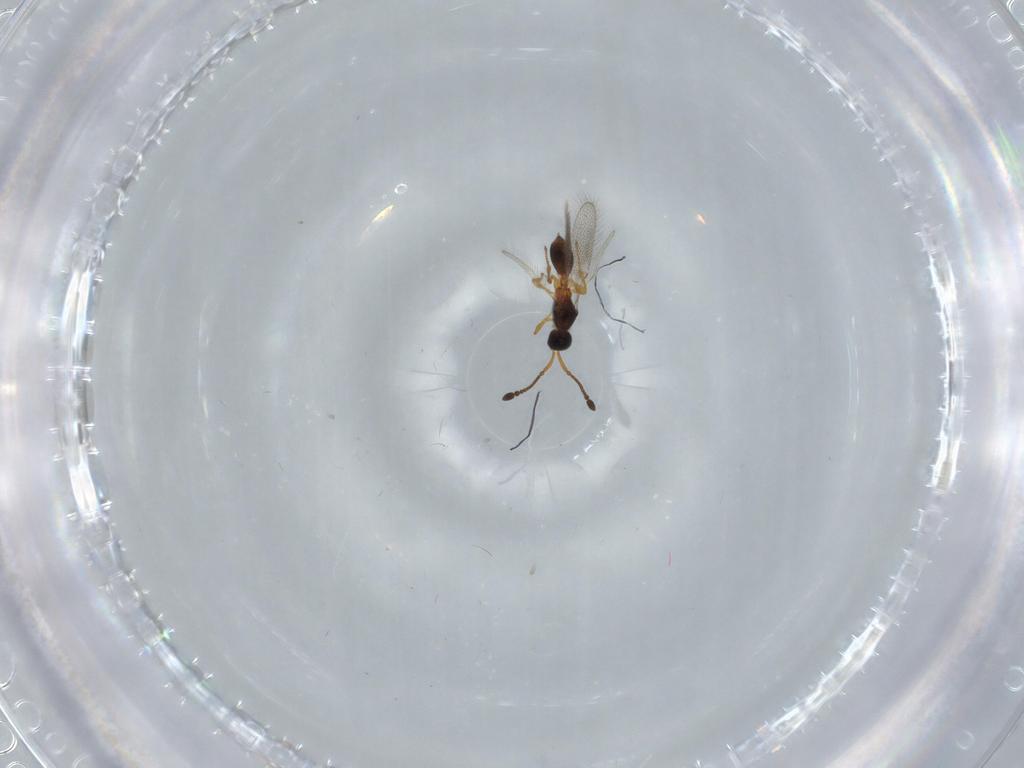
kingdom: Animalia
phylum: Arthropoda
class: Insecta
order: Hymenoptera
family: Diapriidae
